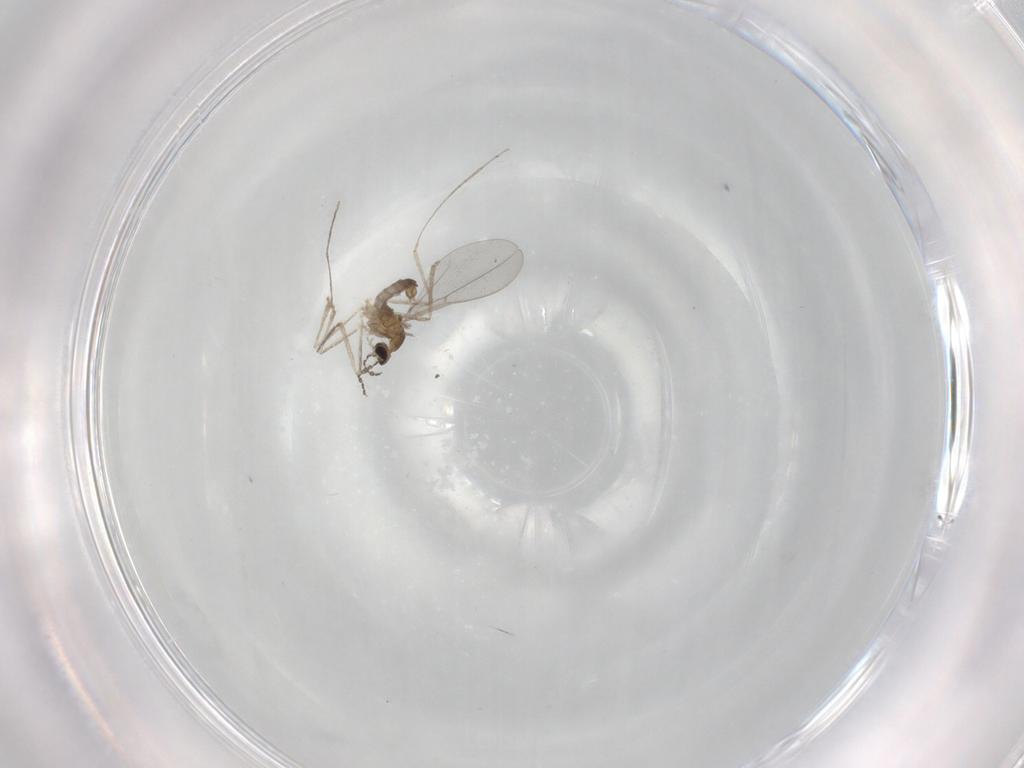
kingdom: Animalia
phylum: Arthropoda
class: Insecta
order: Diptera
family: Cecidomyiidae
